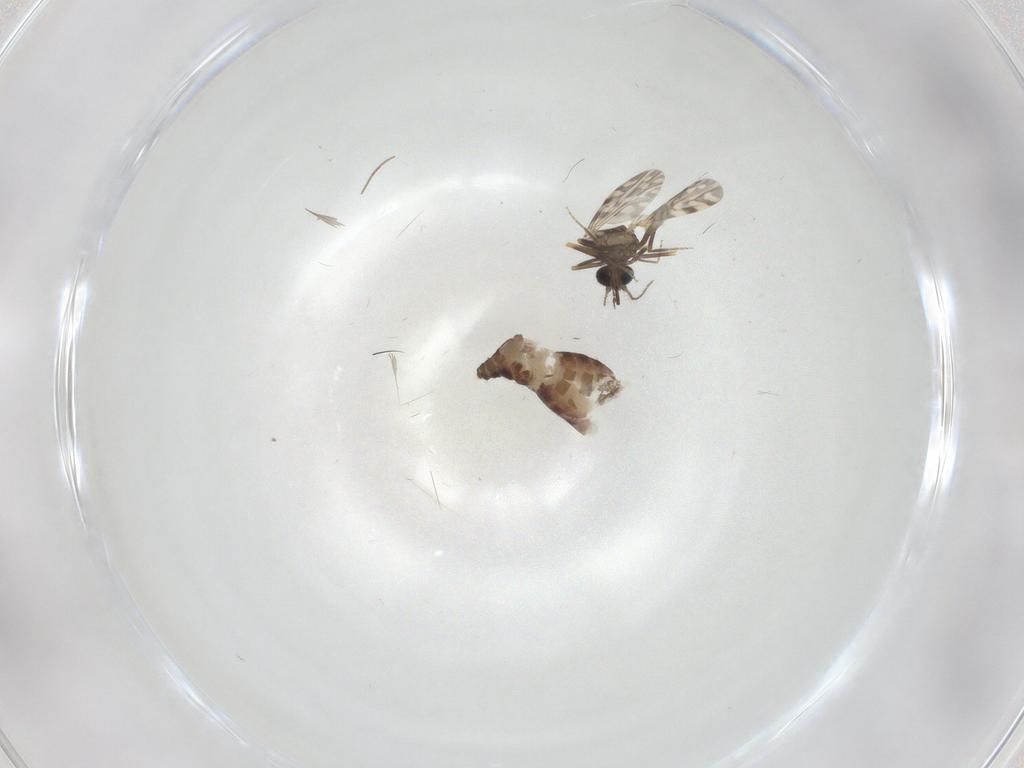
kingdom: Animalia
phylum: Arthropoda
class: Insecta
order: Diptera
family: Ceratopogonidae
